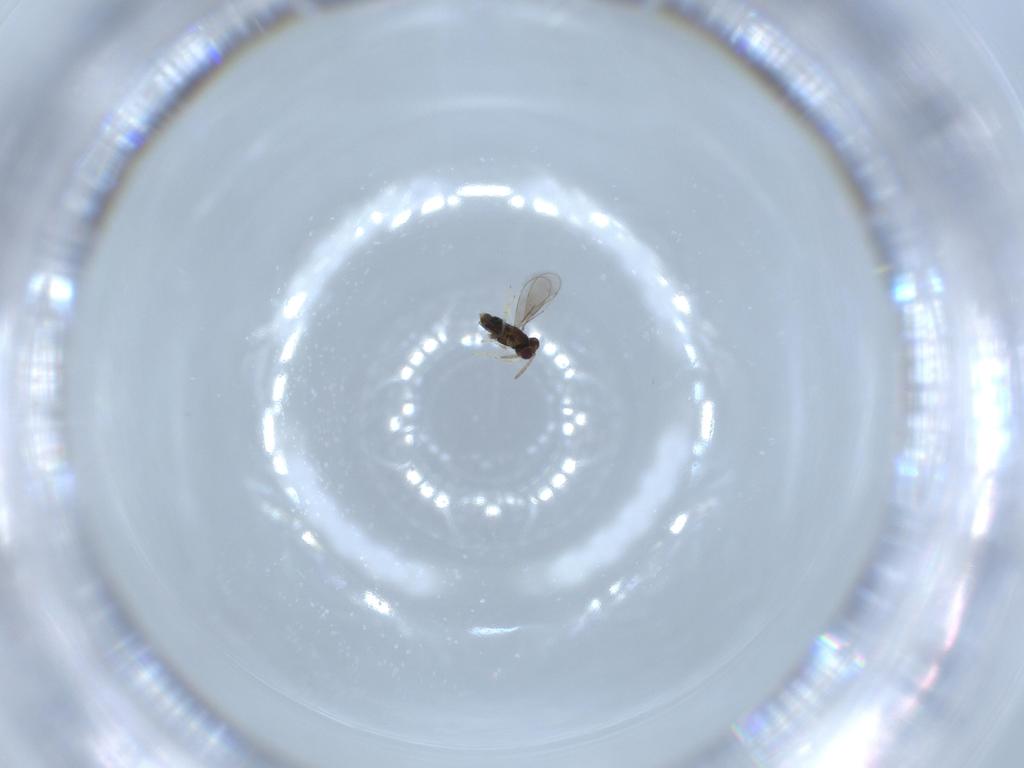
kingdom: Animalia
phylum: Arthropoda
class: Insecta
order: Hymenoptera
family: Aphelinidae
